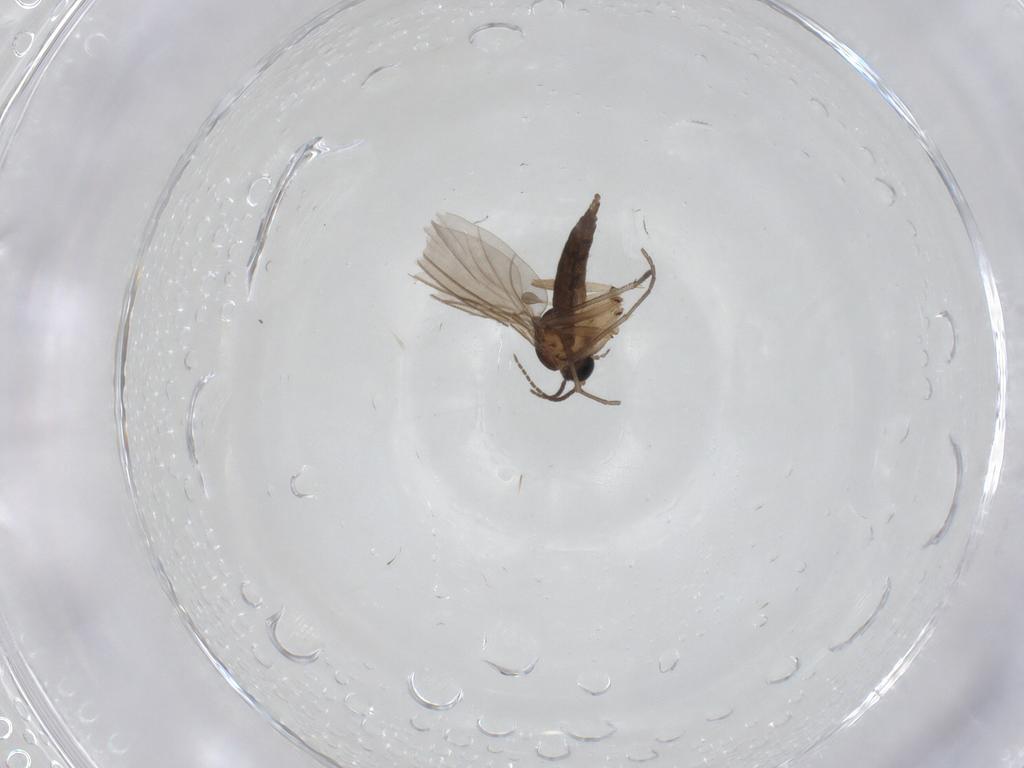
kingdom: Animalia
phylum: Arthropoda
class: Insecta
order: Diptera
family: Sciaridae
